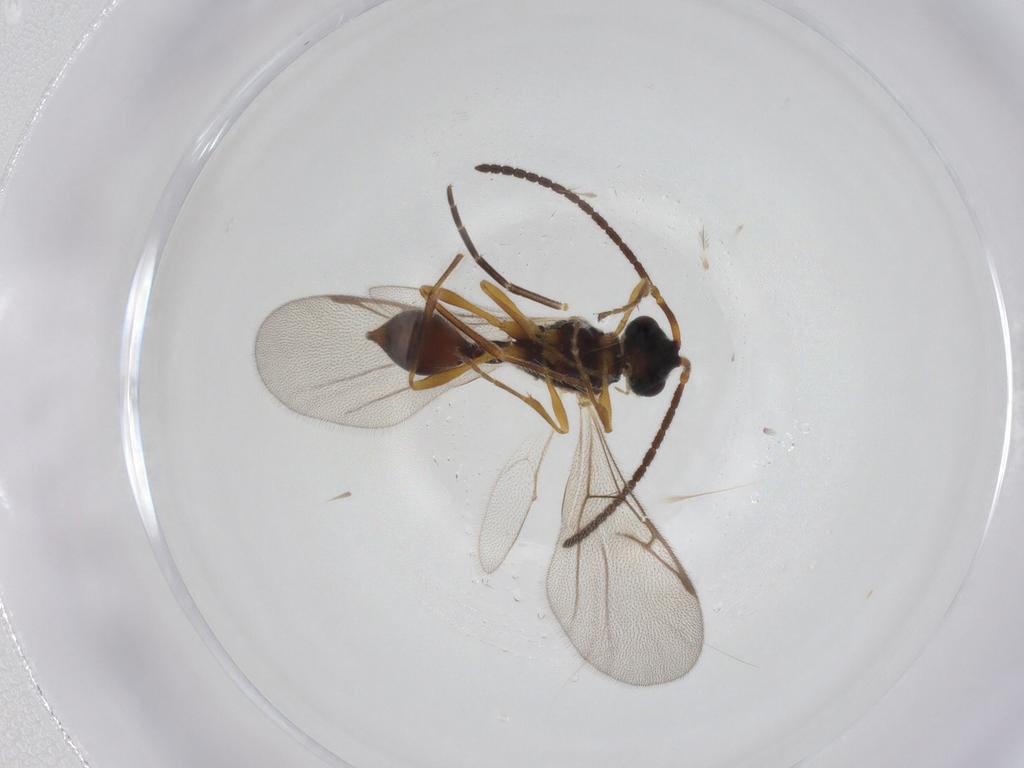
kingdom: Animalia
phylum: Arthropoda
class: Insecta
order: Hymenoptera
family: Diapriidae
